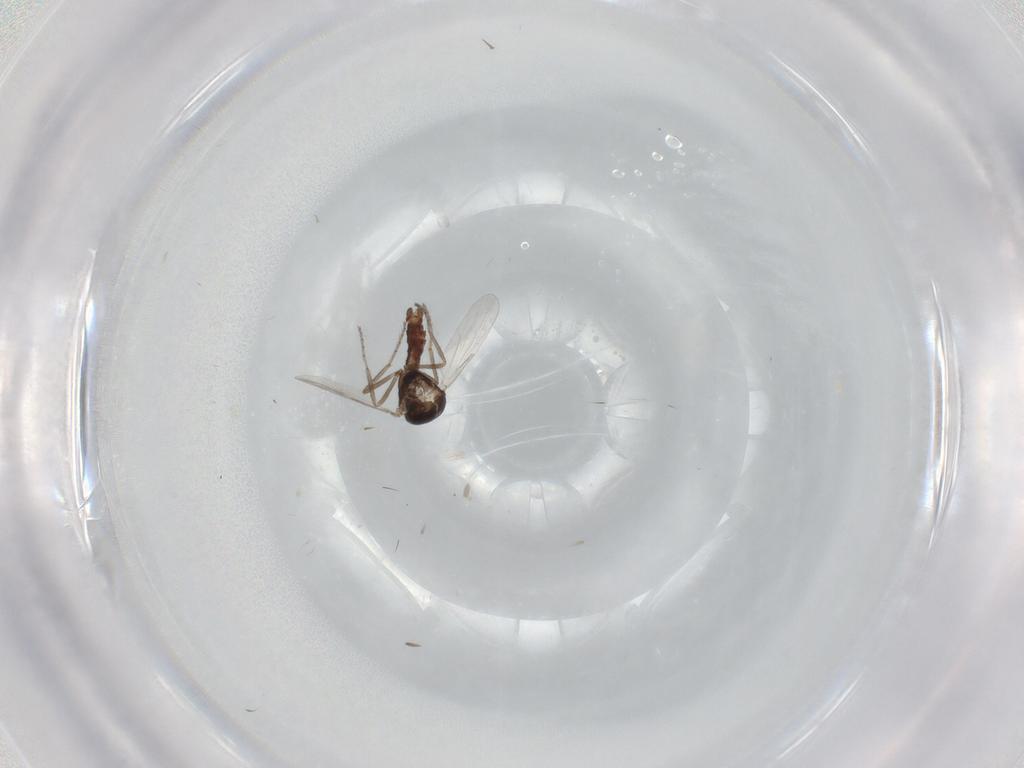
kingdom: Animalia
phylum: Arthropoda
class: Insecta
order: Diptera
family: Ceratopogonidae
